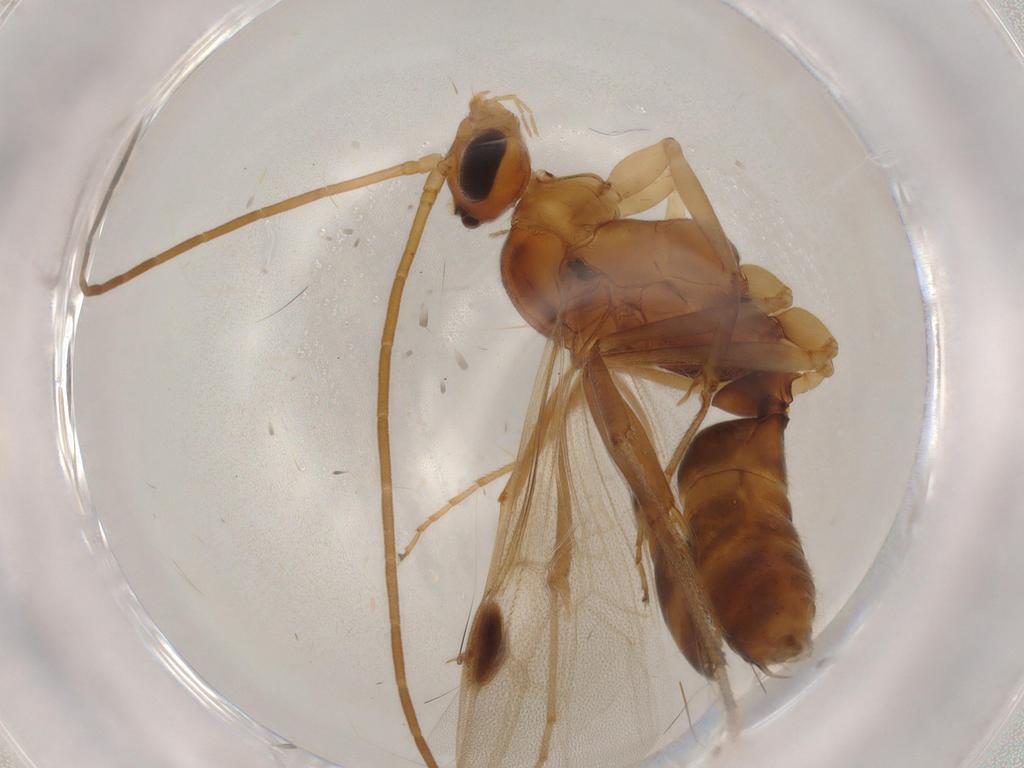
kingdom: Animalia
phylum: Arthropoda
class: Insecta
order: Hymenoptera
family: Formicidae
